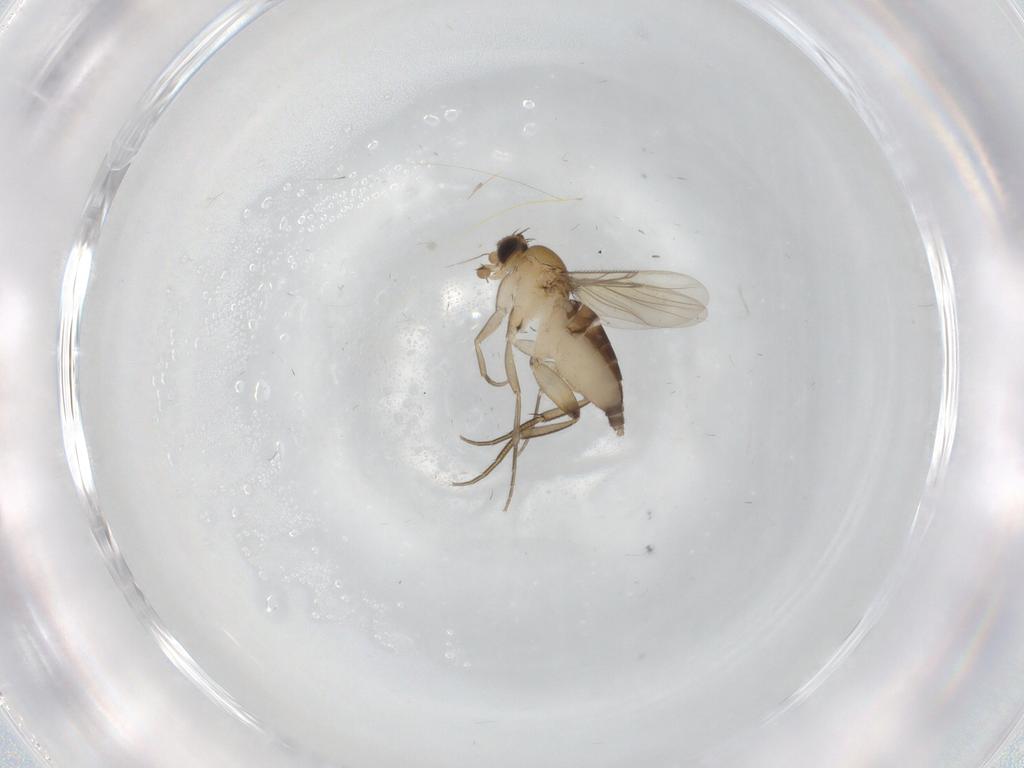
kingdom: Animalia
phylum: Arthropoda
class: Insecta
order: Diptera
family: Phoridae
